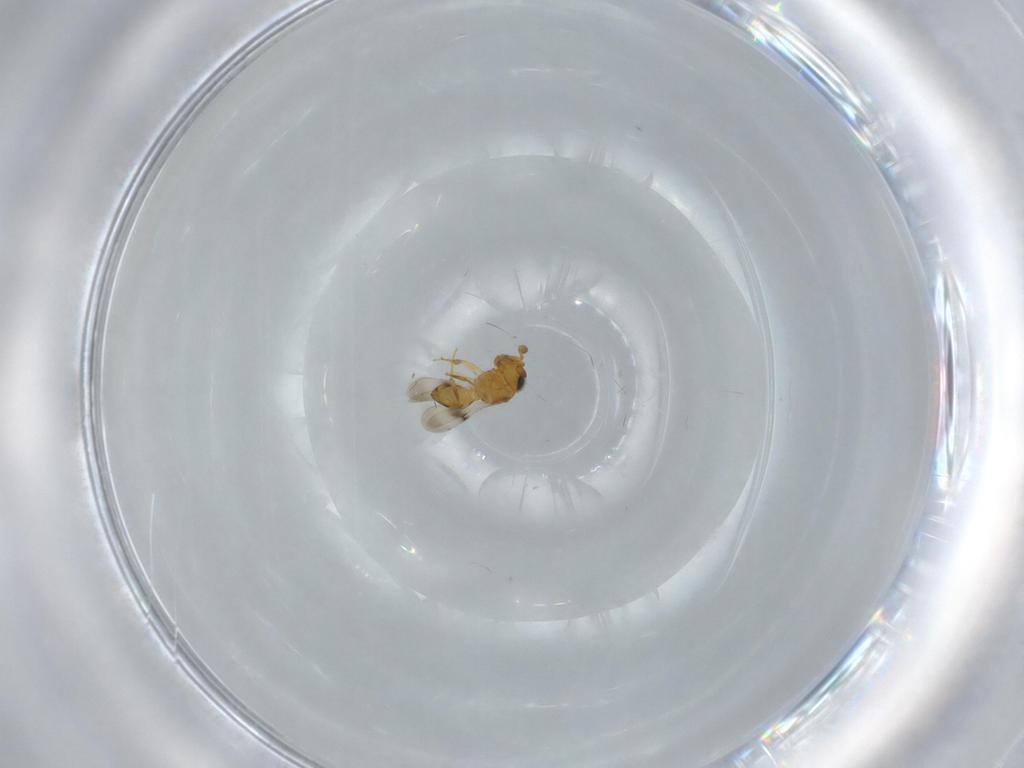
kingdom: Animalia
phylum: Arthropoda
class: Insecta
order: Hymenoptera
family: Scelionidae
